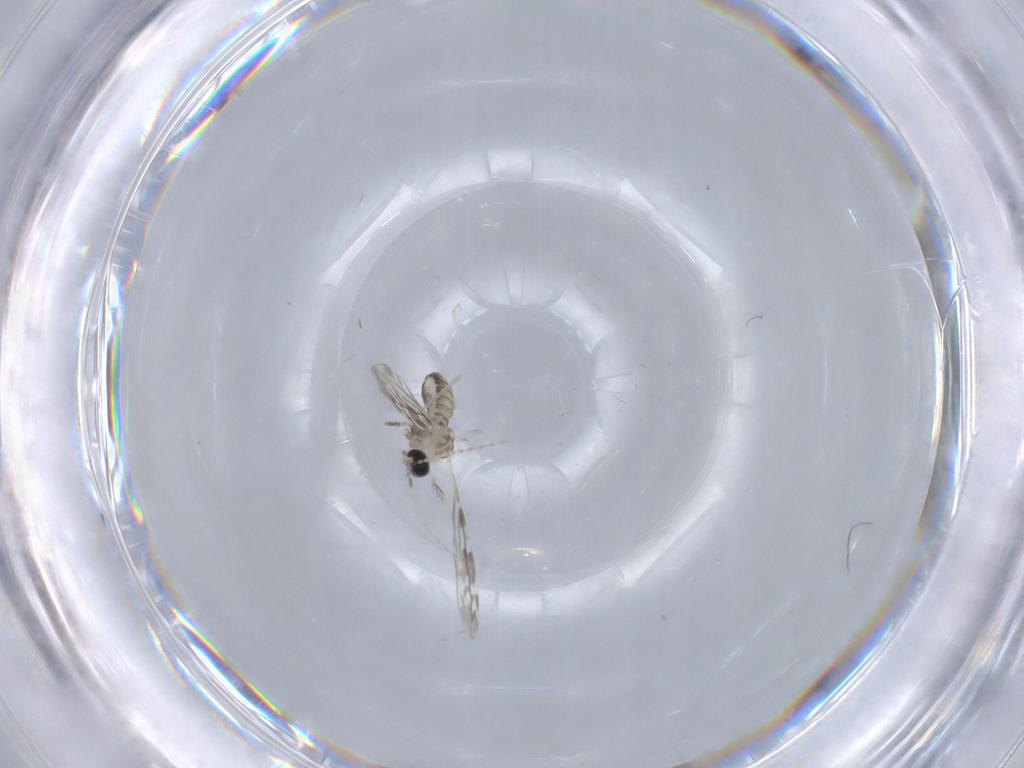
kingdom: Animalia
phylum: Arthropoda
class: Insecta
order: Diptera
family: Cecidomyiidae
